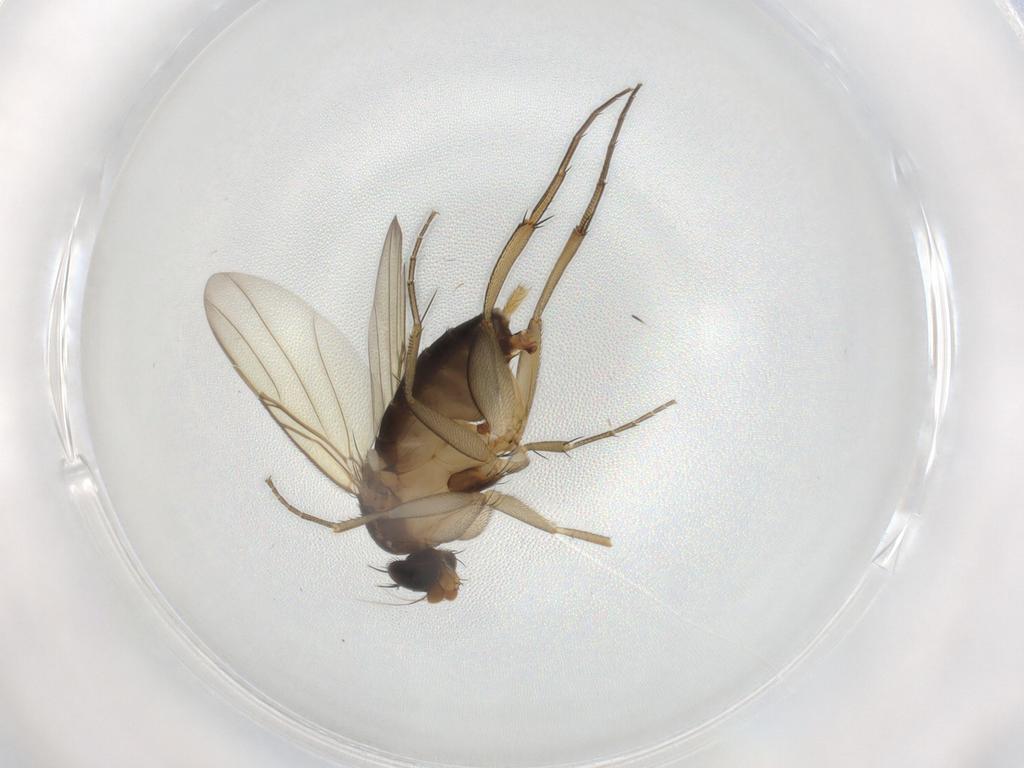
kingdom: Animalia
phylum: Arthropoda
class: Insecta
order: Diptera
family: Phoridae
